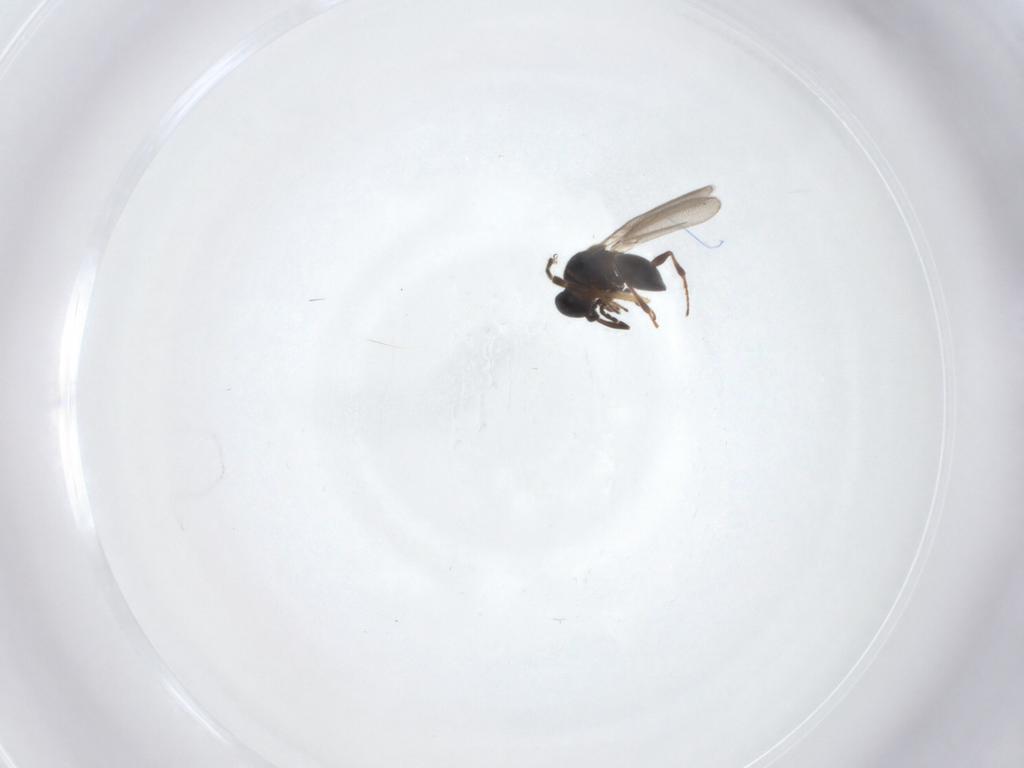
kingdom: Animalia
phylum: Arthropoda
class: Insecta
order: Hymenoptera
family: Platygastridae
